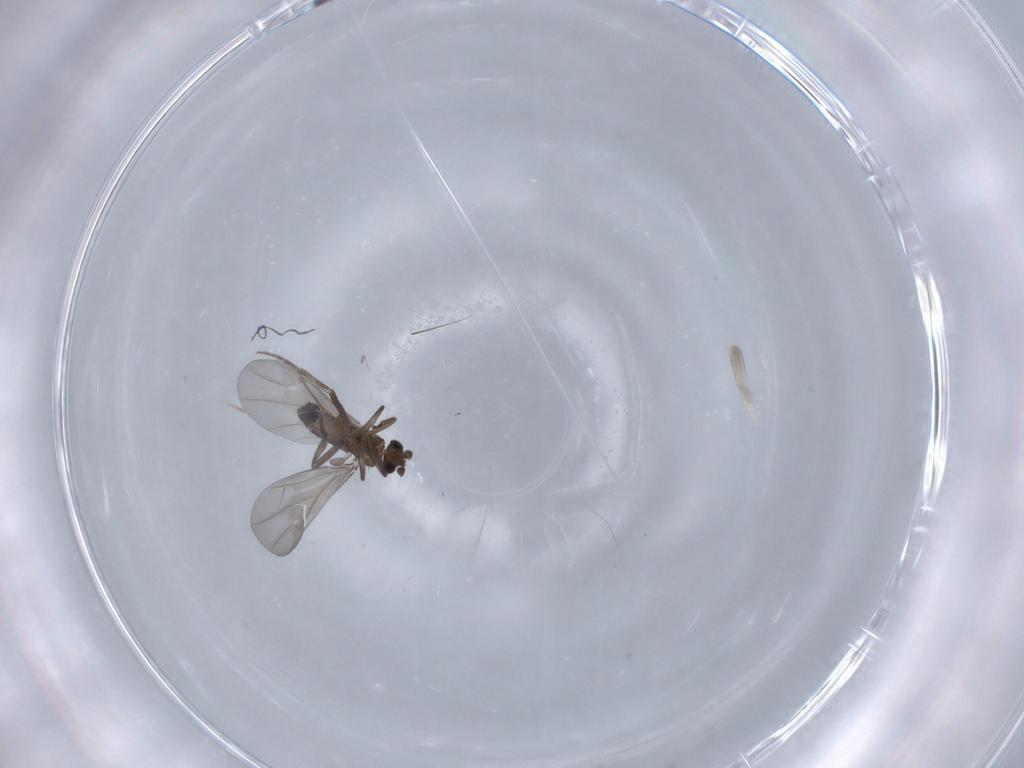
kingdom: Animalia
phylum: Arthropoda
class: Insecta
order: Diptera
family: Phoridae
